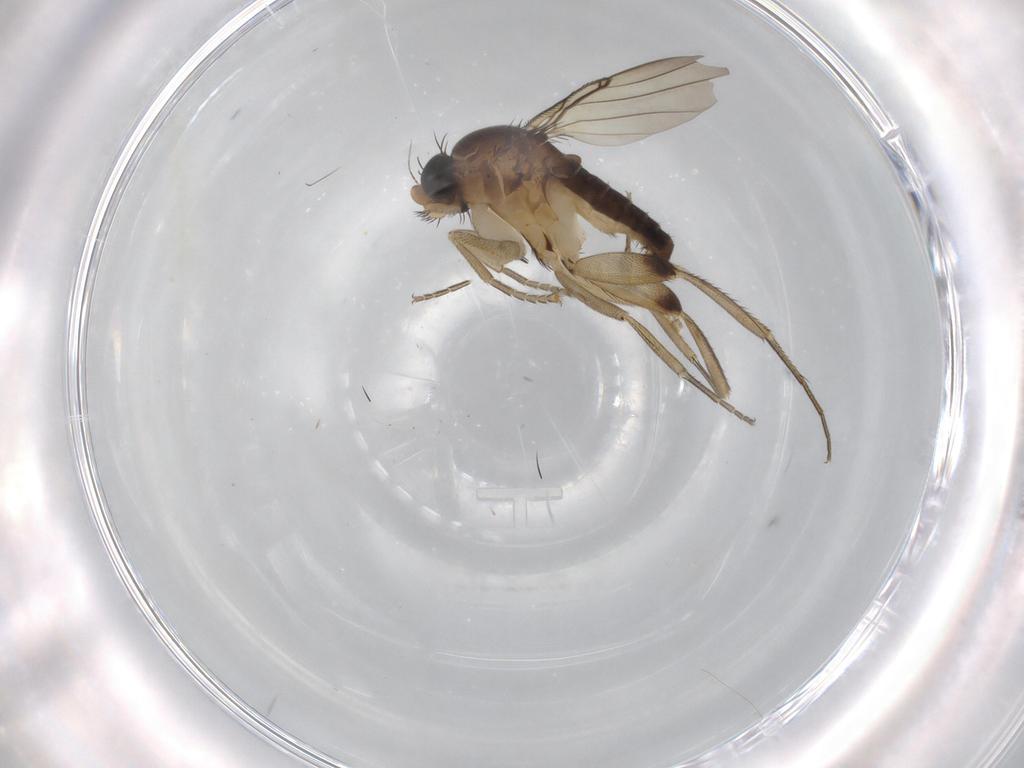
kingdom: Animalia
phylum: Arthropoda
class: Insecta
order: Diptera
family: Phoridae
